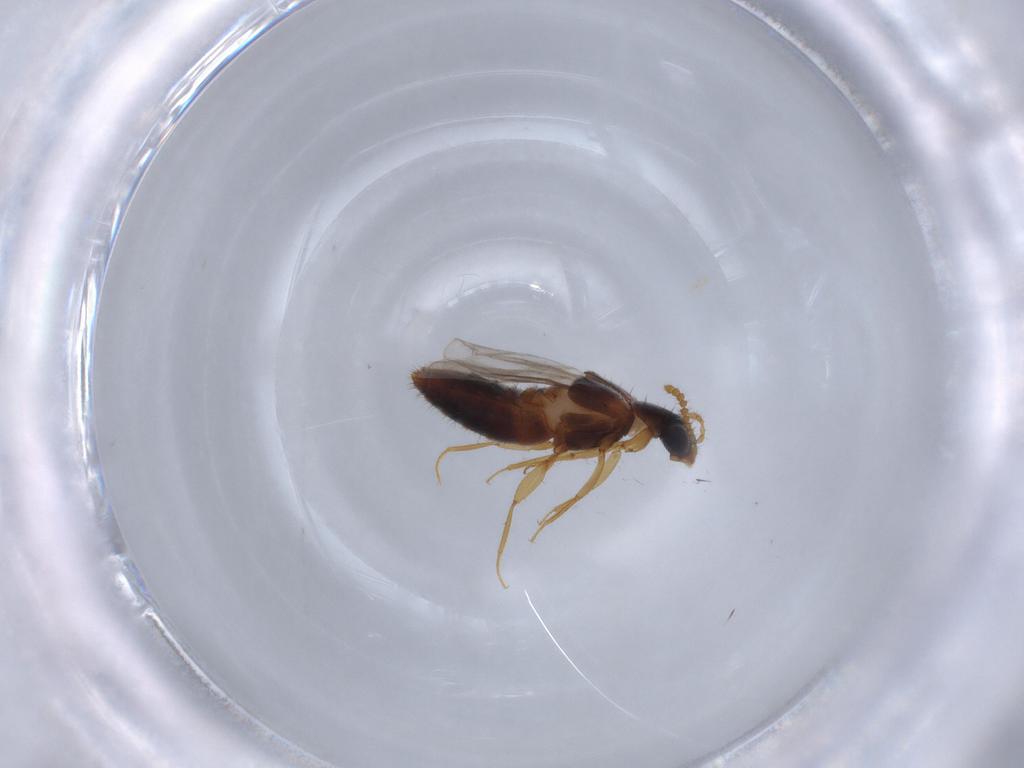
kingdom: Animalia
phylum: Arthropoda
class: Insecta
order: Coleoptera
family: Staphylinidae
